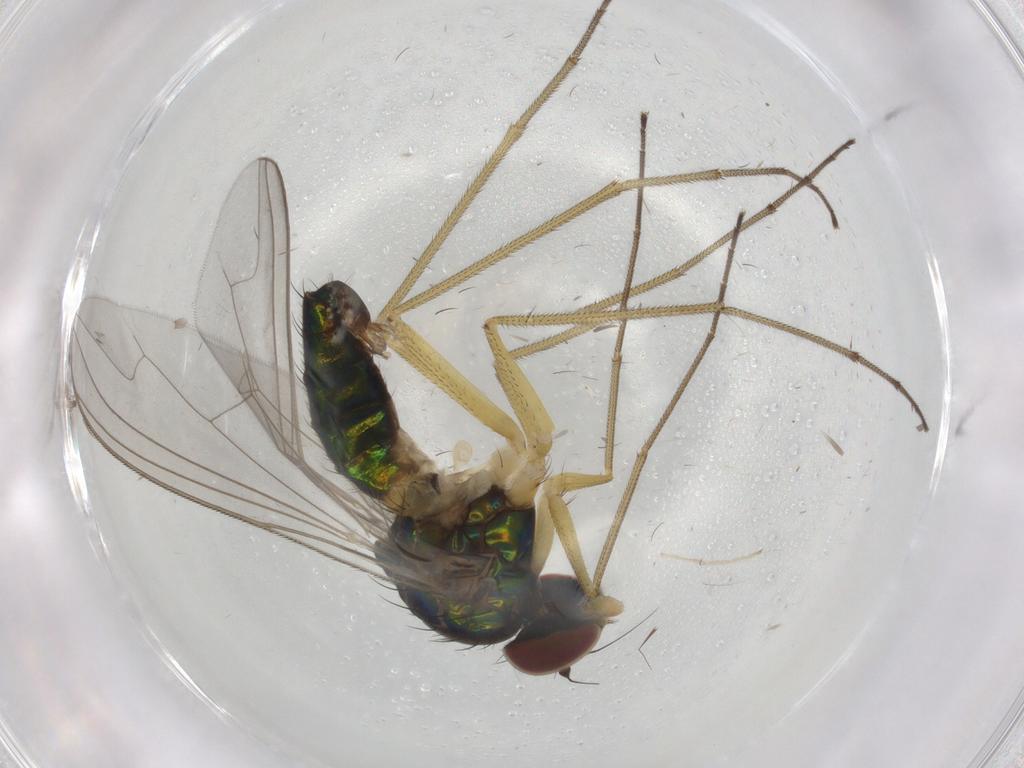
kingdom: Animalia
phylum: Arthropoda
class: Insecta
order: Diptera
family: Dolichopodidae
